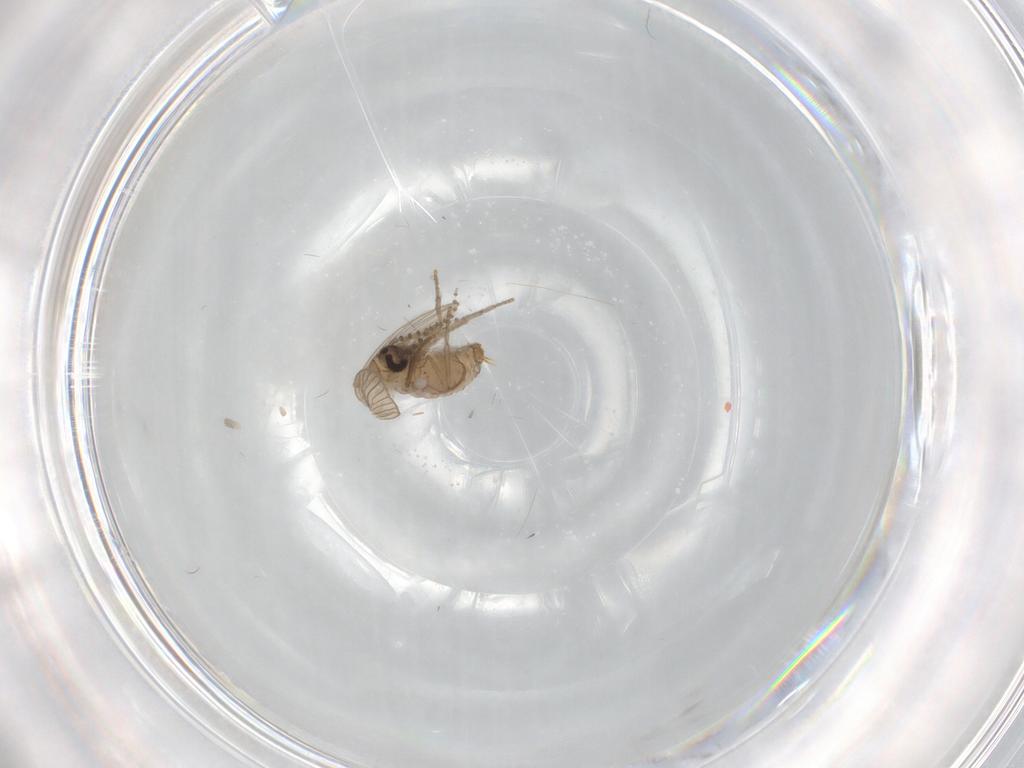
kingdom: Animalia
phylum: Arthropoda
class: Insecta
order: Diptera
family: Psychodidae
